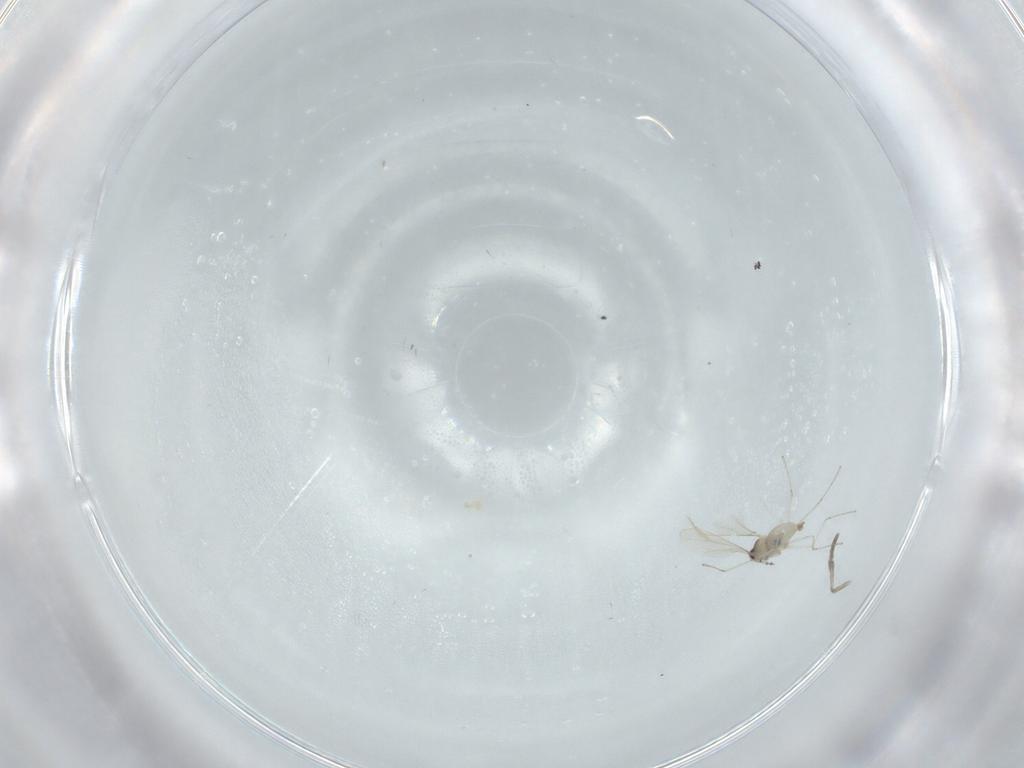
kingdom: Animalia
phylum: Arthropoda
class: Insecta
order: Diptera
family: Cecidomyiidae
